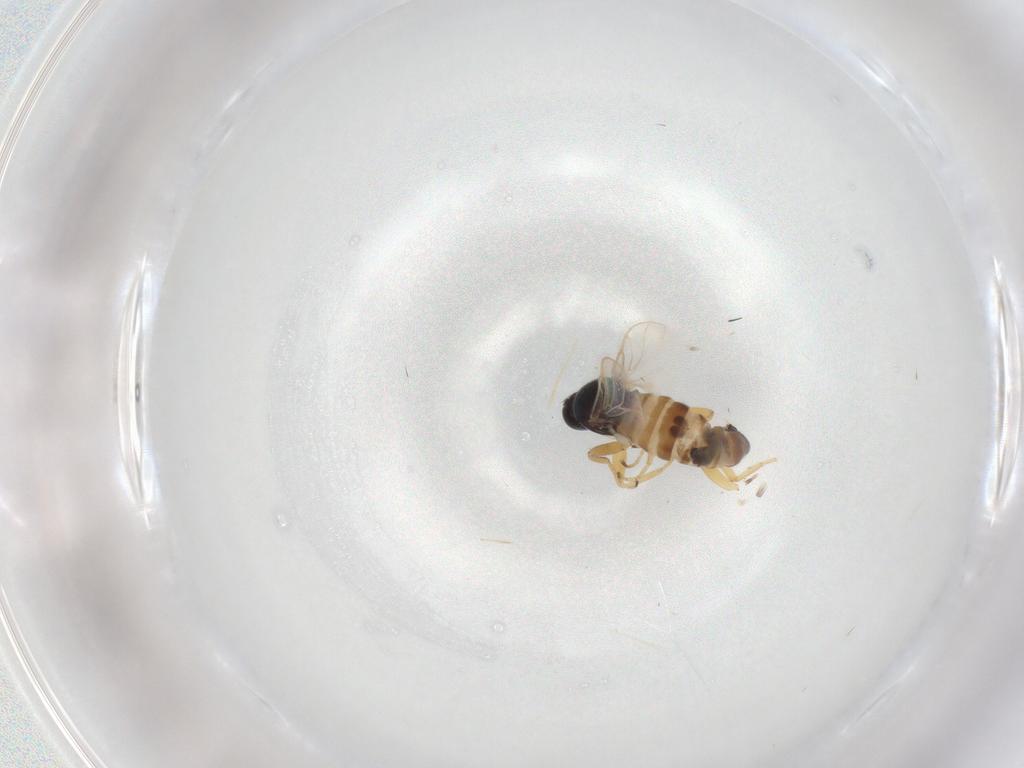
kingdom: Animalia
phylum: Arthropoda
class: Insecta
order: Diptera
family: Hybotidae
